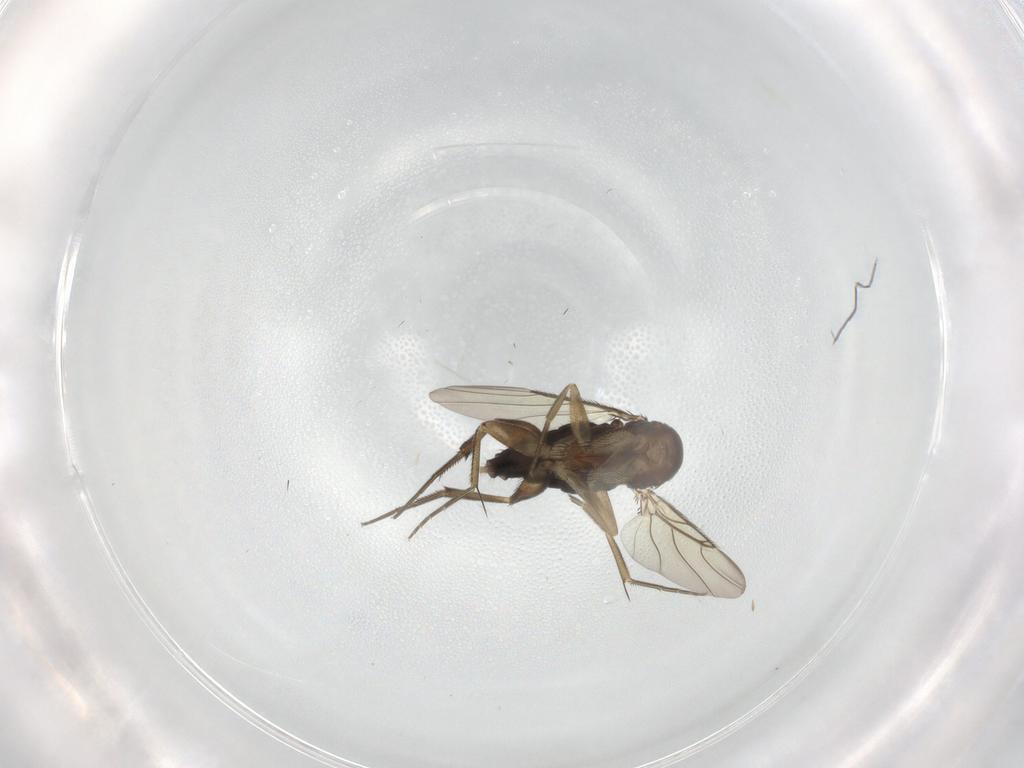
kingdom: Animalia
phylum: Arthropoda
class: Insecta
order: Diptera
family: Phoridae
